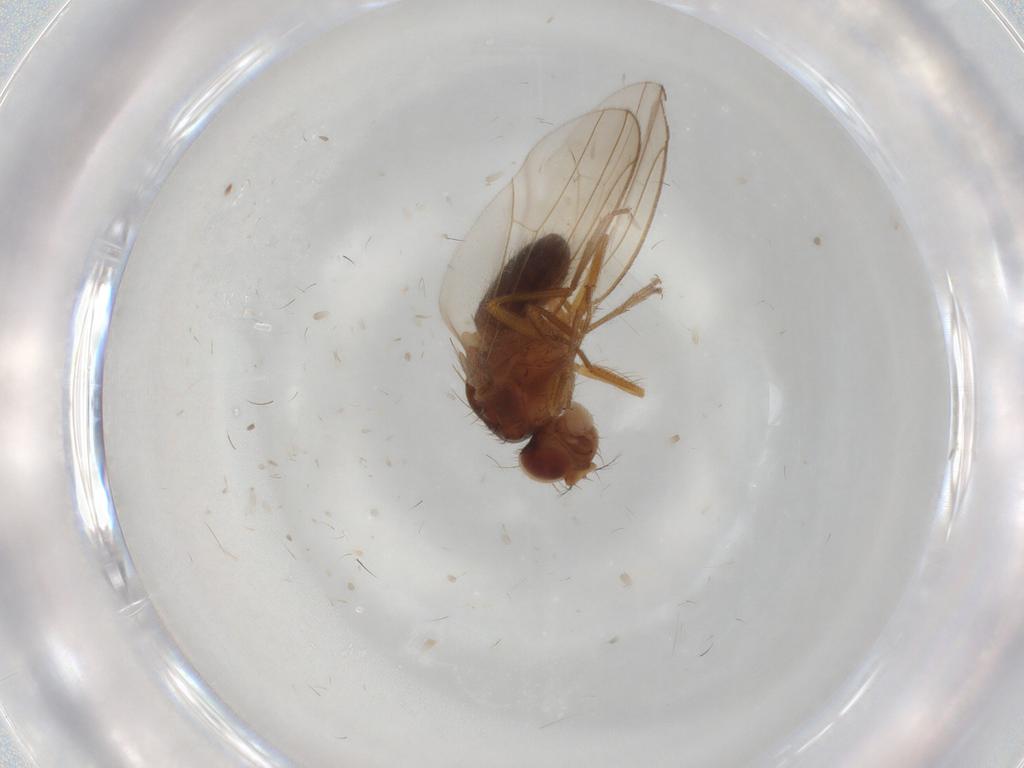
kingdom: Animalia
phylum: Arthropoda
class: Insecta
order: Diptera
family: Drosophilidae
